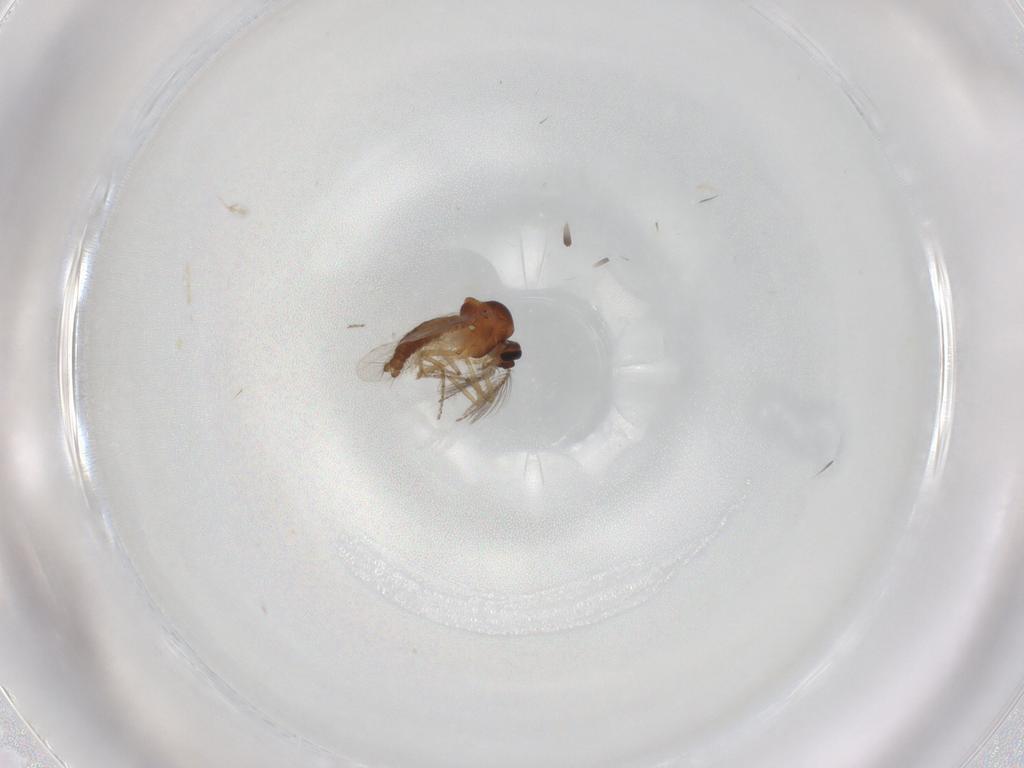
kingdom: Animalia
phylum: Arthropoda
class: Insecta
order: Diptera
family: Ceratopogonidae
